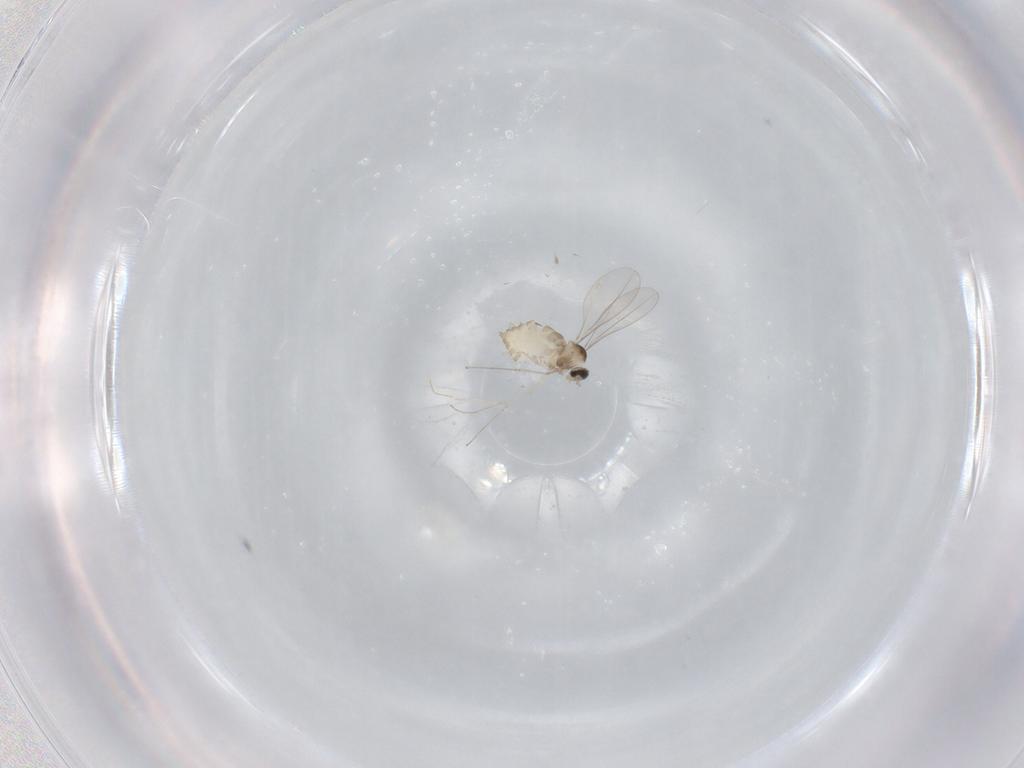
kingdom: Animalia
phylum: Arthropoda
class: Insecta
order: Diptera
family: Cecidomyiidae
